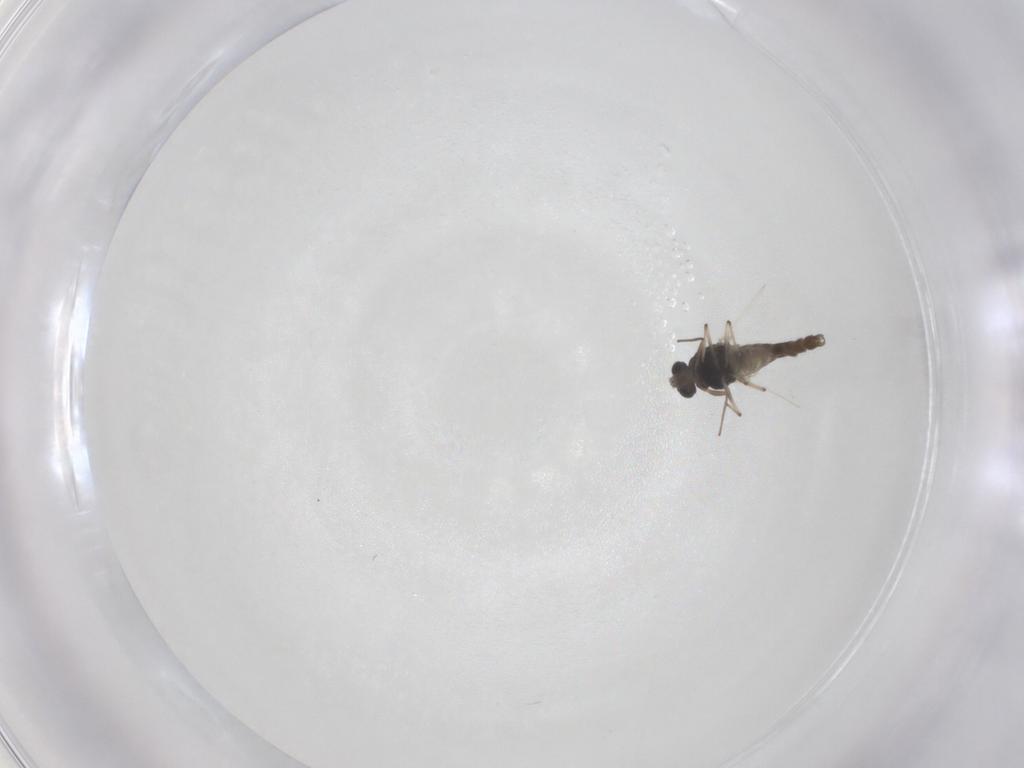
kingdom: Animalia
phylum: Arthropoda
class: Insecta
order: Diptera
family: Chironomidae
